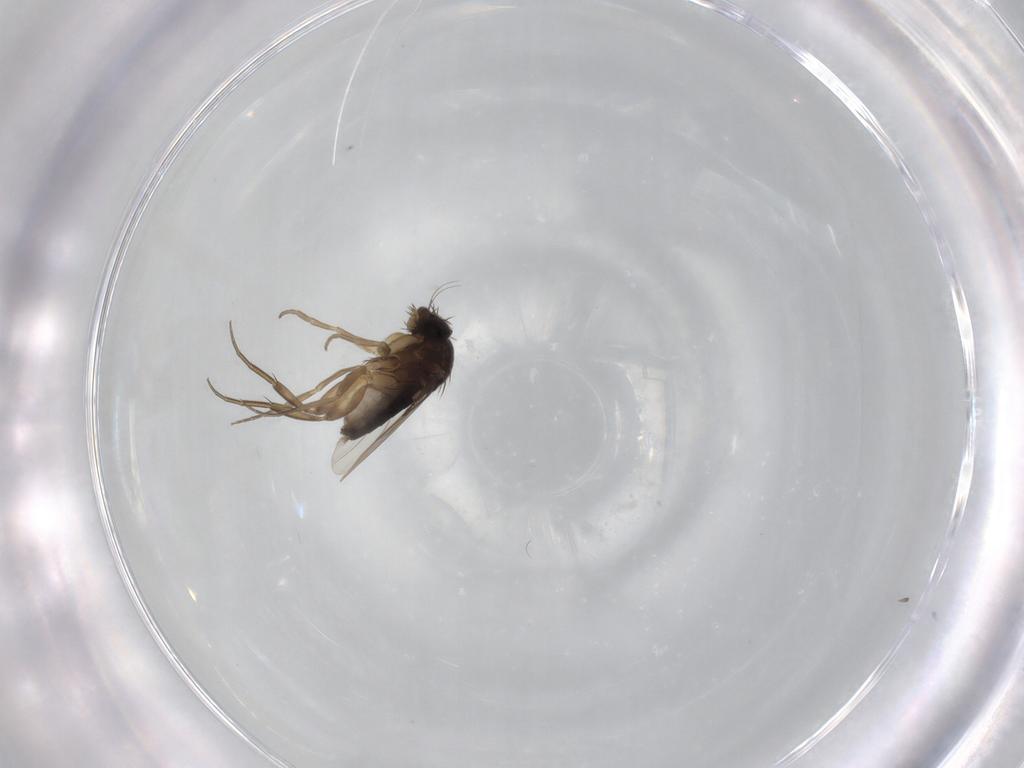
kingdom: Animalia
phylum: Arthropoda
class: Insecta
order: Diptera
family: Phoridae
